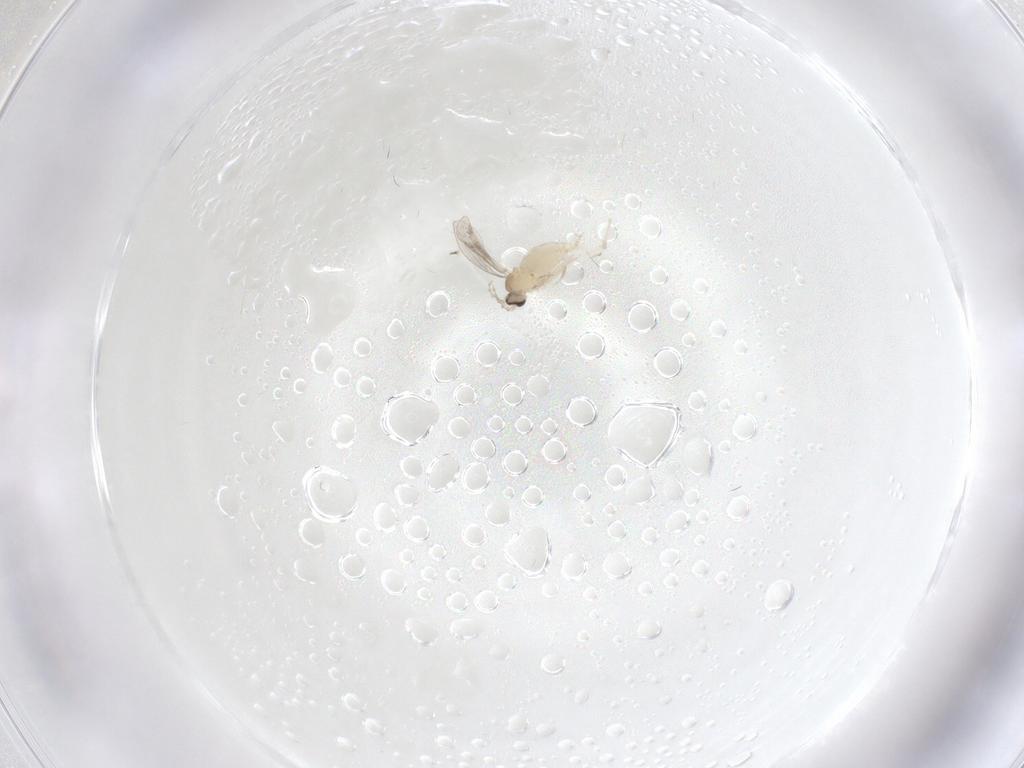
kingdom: Animalia
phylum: Arthropoda
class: Insecta
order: Diptera
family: Cecidomyiidae
